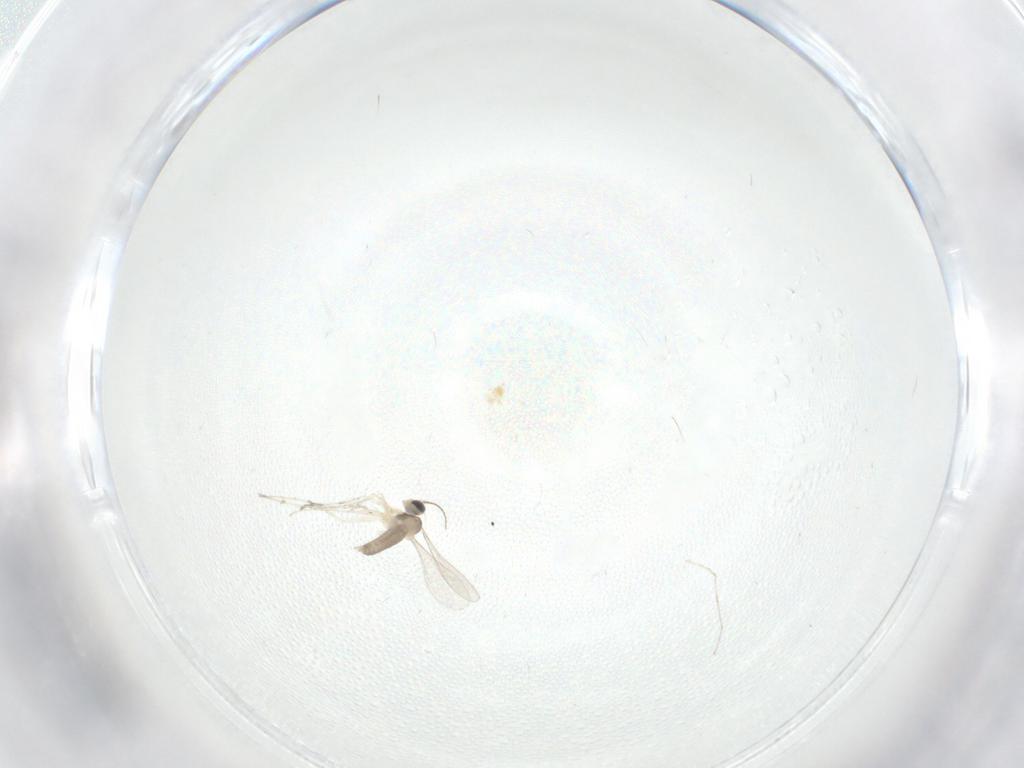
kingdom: Animalia
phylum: Arthropoda
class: Insecta
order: Diptera
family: Cecidomyiidae
